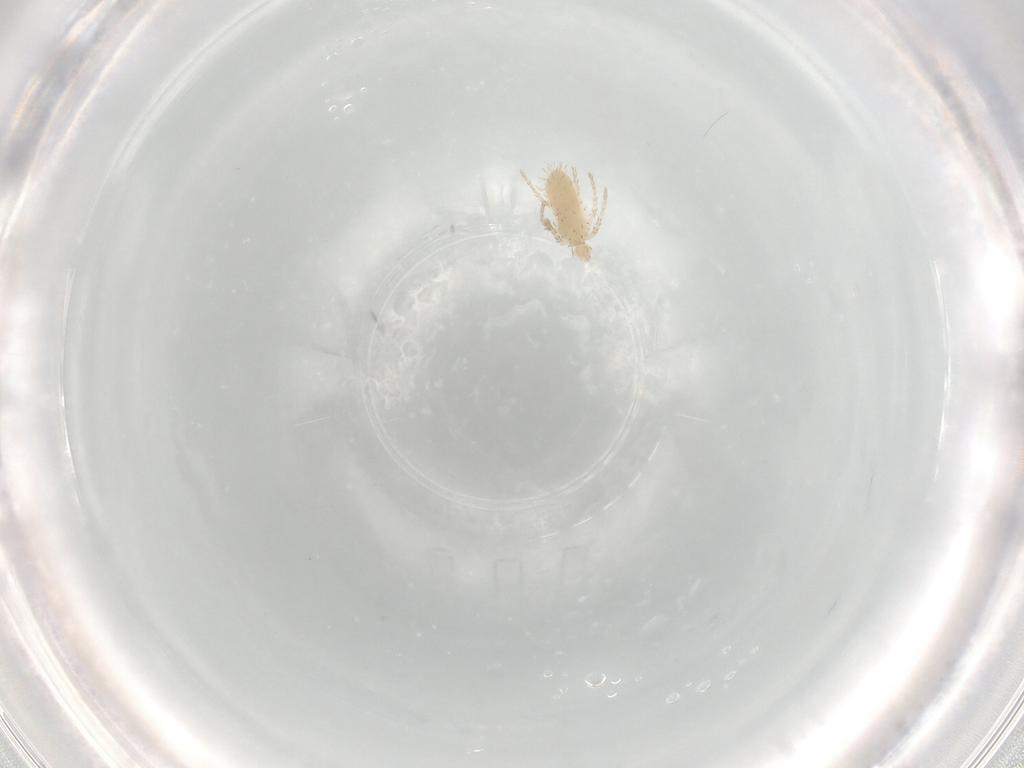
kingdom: Animalia
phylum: Arthropoda
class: Arachnida
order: Trombidiformes
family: Erythraeidae
